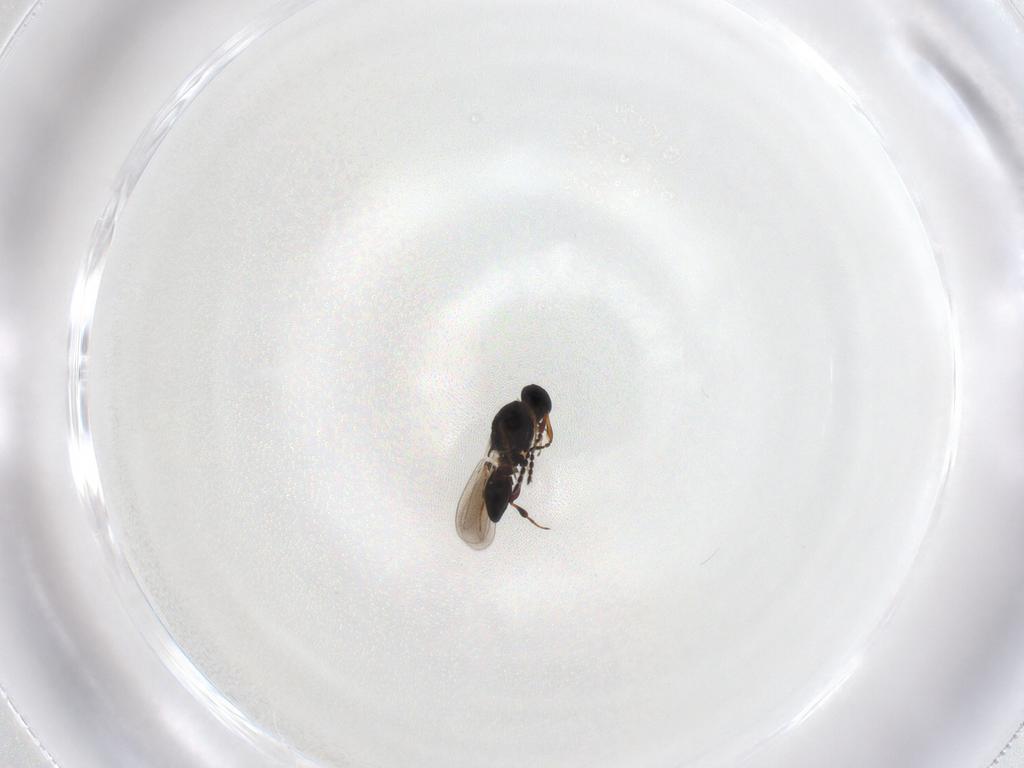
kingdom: Animalia
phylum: Arthropoda
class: Insecta
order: Hymenoptera
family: Platygastridae
